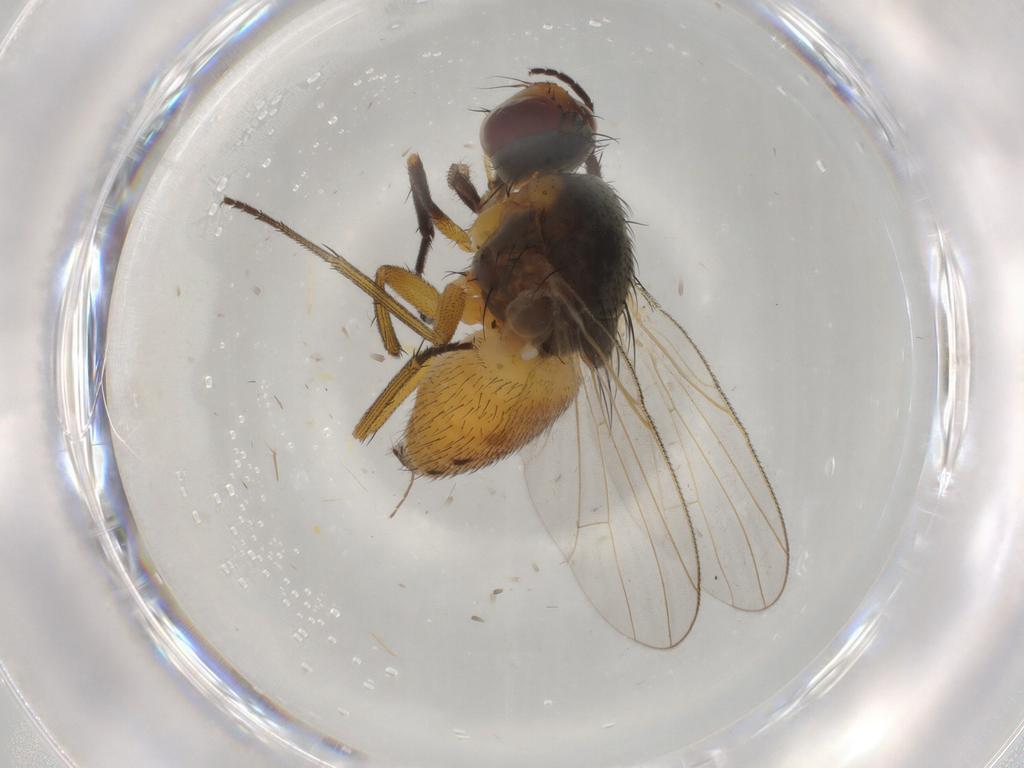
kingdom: Animalia
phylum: Arthropoda
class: Insecta
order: Diptera
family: Muscidae
